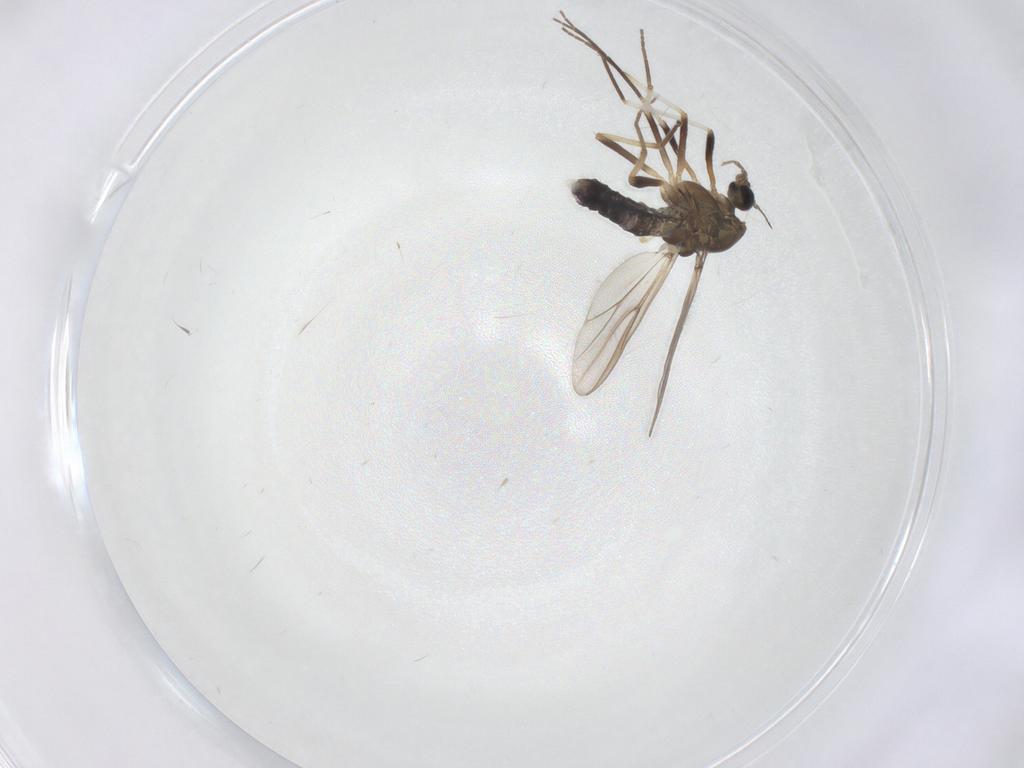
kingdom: Animalia
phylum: Arthropoda
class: Insecta
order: Diptera
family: Chironomidae
